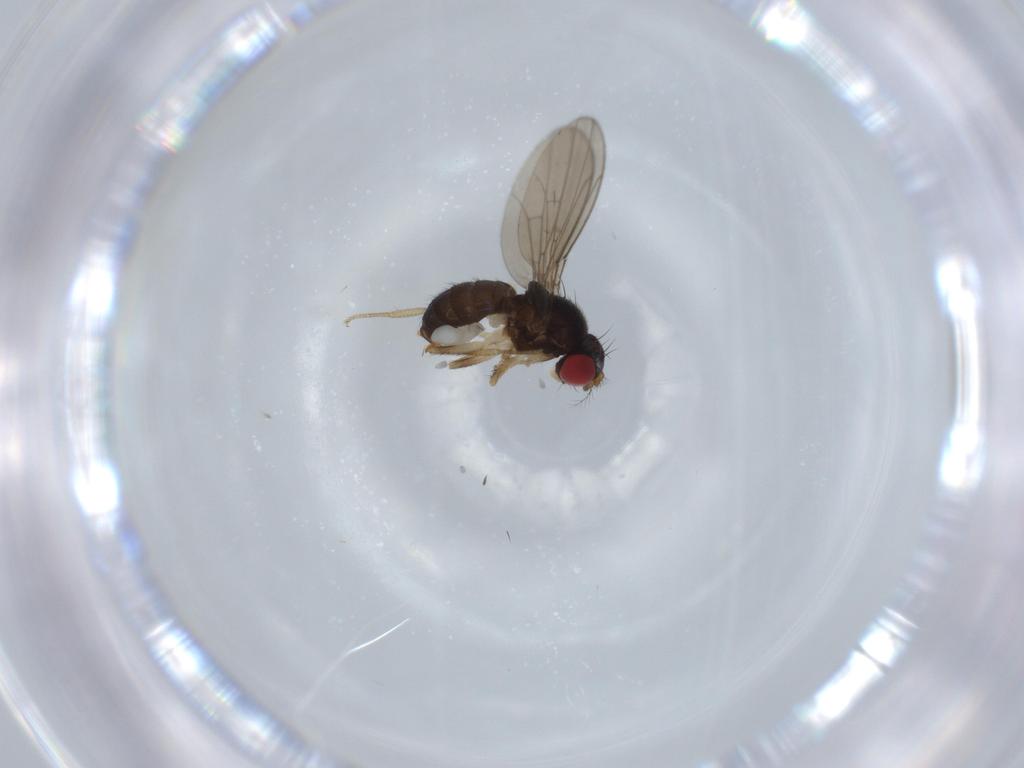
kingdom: Animalia
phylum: Arthropoda
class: Insecta
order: Diptera
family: Drosophilidae
